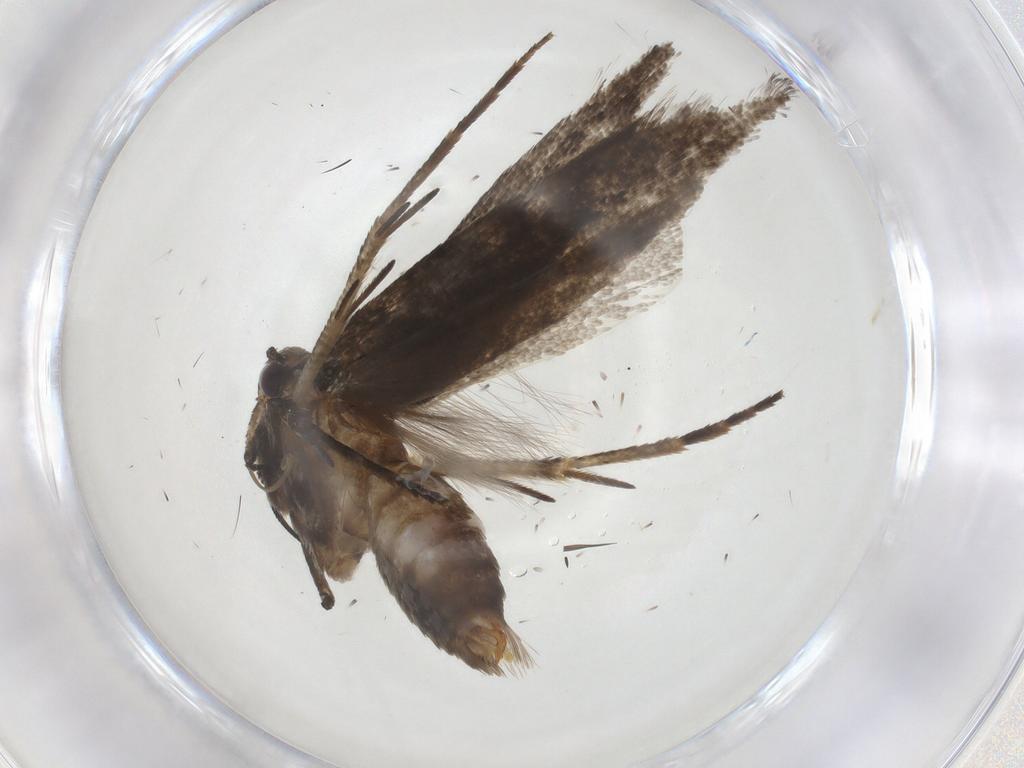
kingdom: Animalia
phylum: Arthropoda
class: Insecta
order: Lepidoptera
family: Gelechiidae
